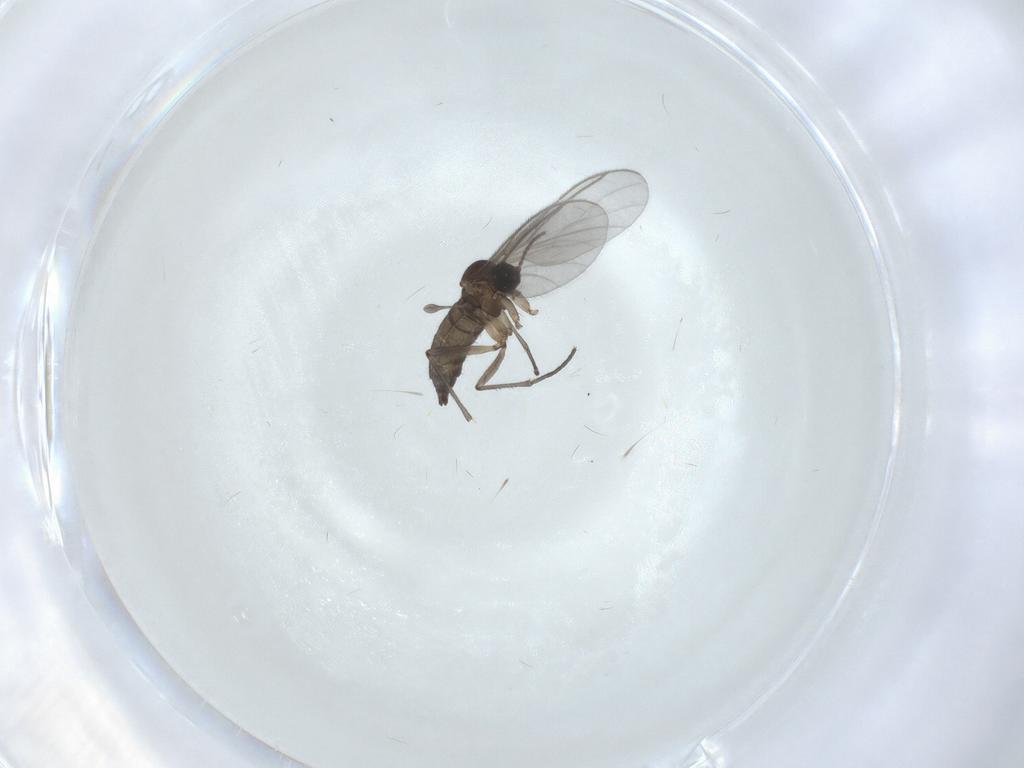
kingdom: Animalia
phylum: Arthropoda
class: Insecta
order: Diptera
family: Sciaridae
